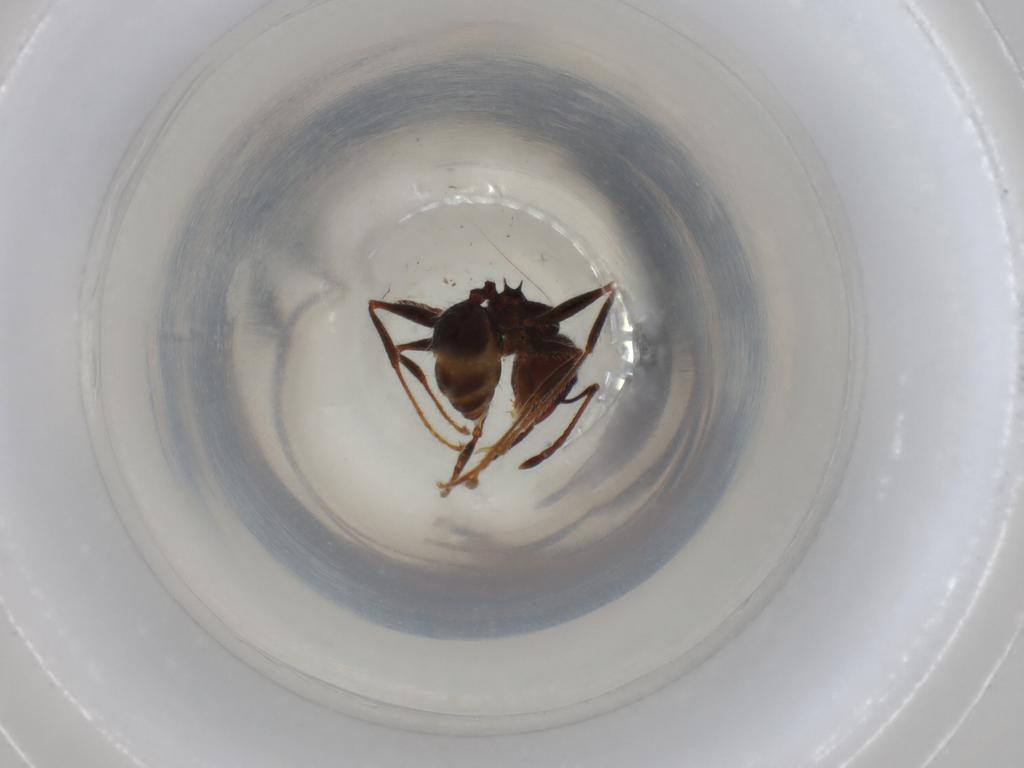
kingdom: Animalia
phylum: Arthropoda
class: Insecta
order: Hymenoptera
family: Formicidae
